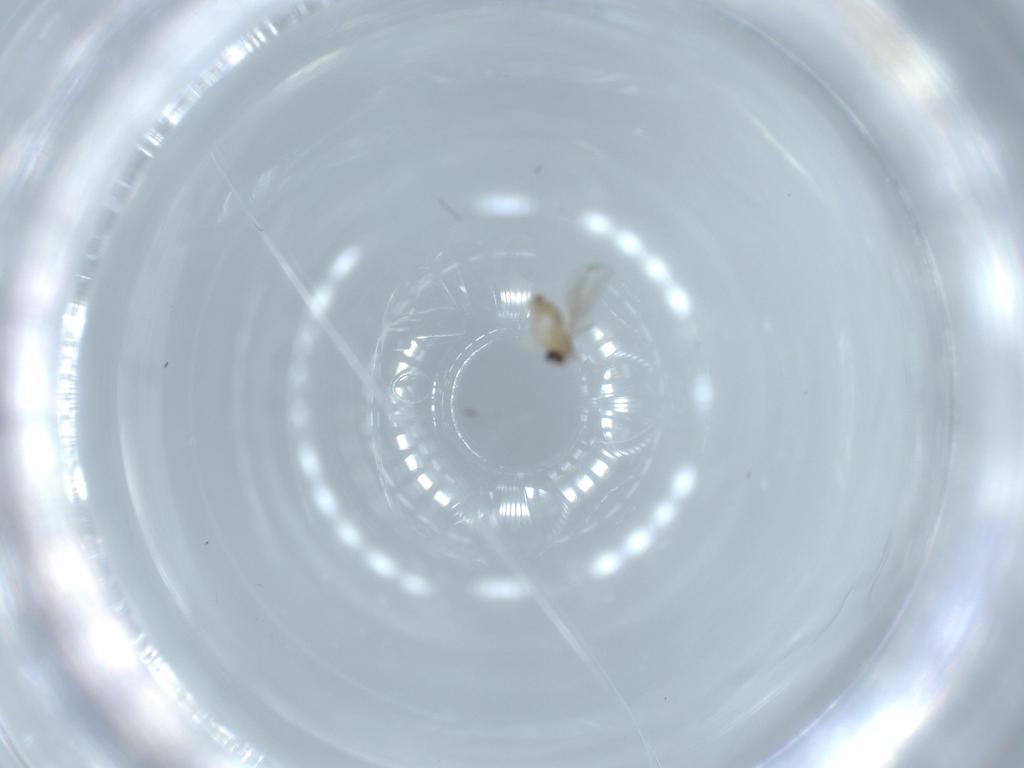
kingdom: Animalia
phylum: Arthropoda
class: Insecta
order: Diptera
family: Cecidomyiidae
